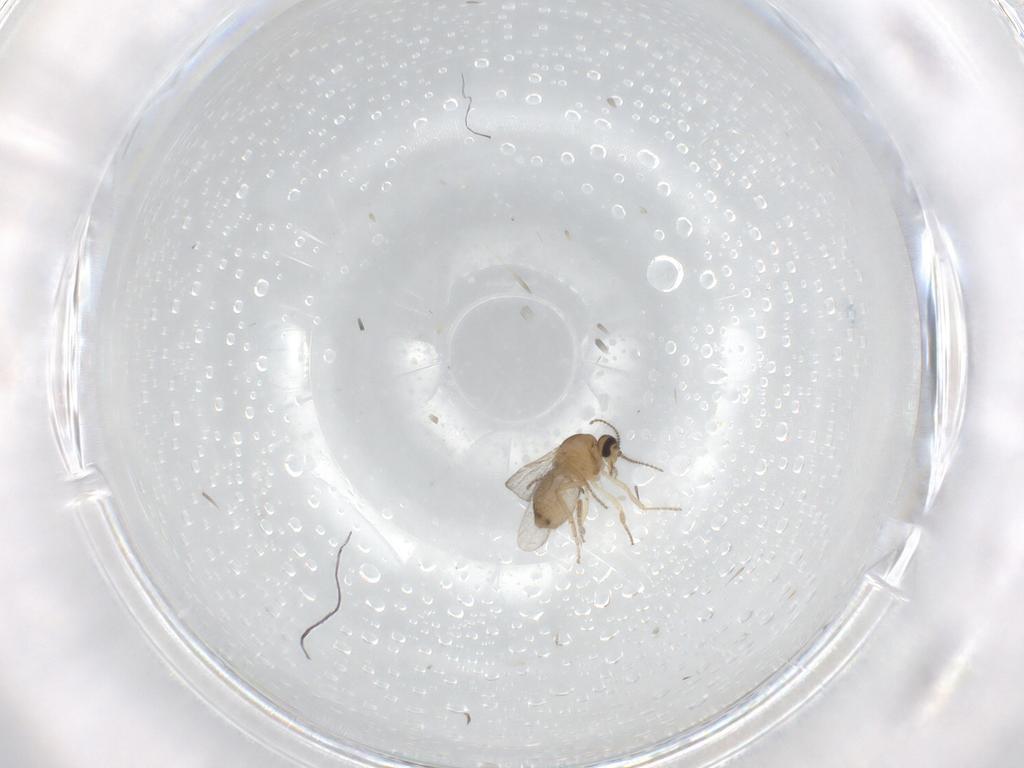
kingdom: Animalia
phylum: Arthropoda
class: Insecta
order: Diptera
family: Ceratopogonidae
